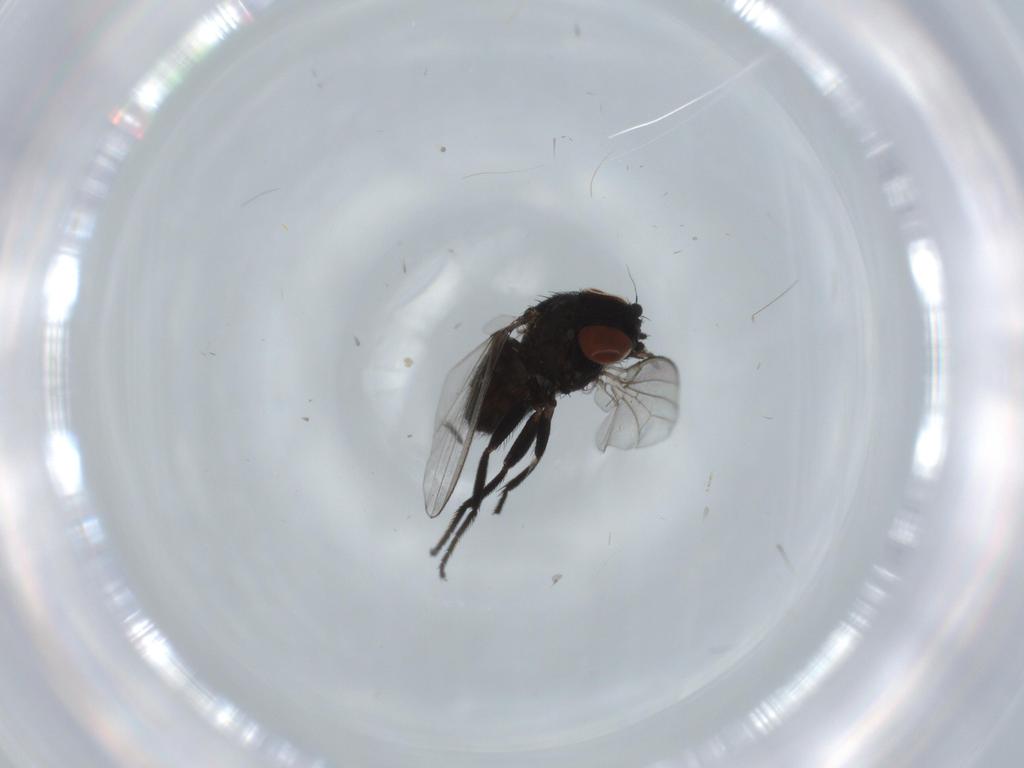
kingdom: Animalia
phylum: Arthropoda
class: Insecta
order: Diptera
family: Milichiidae
